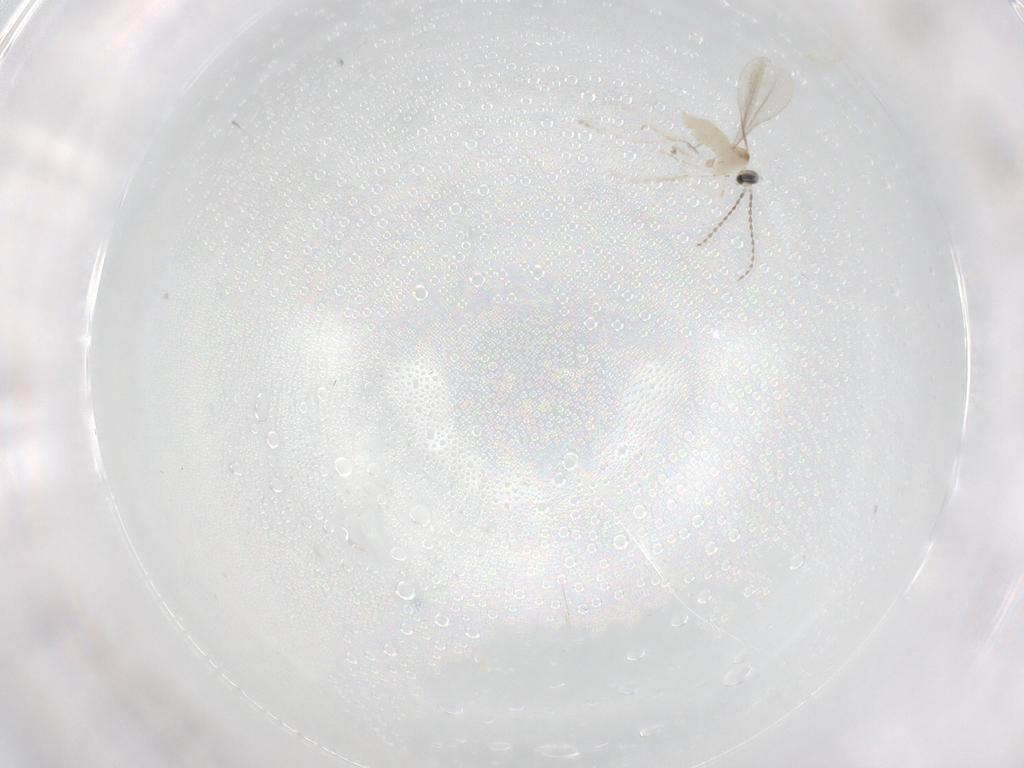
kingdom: Animalia
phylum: Arthropoda
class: Insecta
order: Diptera
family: Cecidomyiidae
